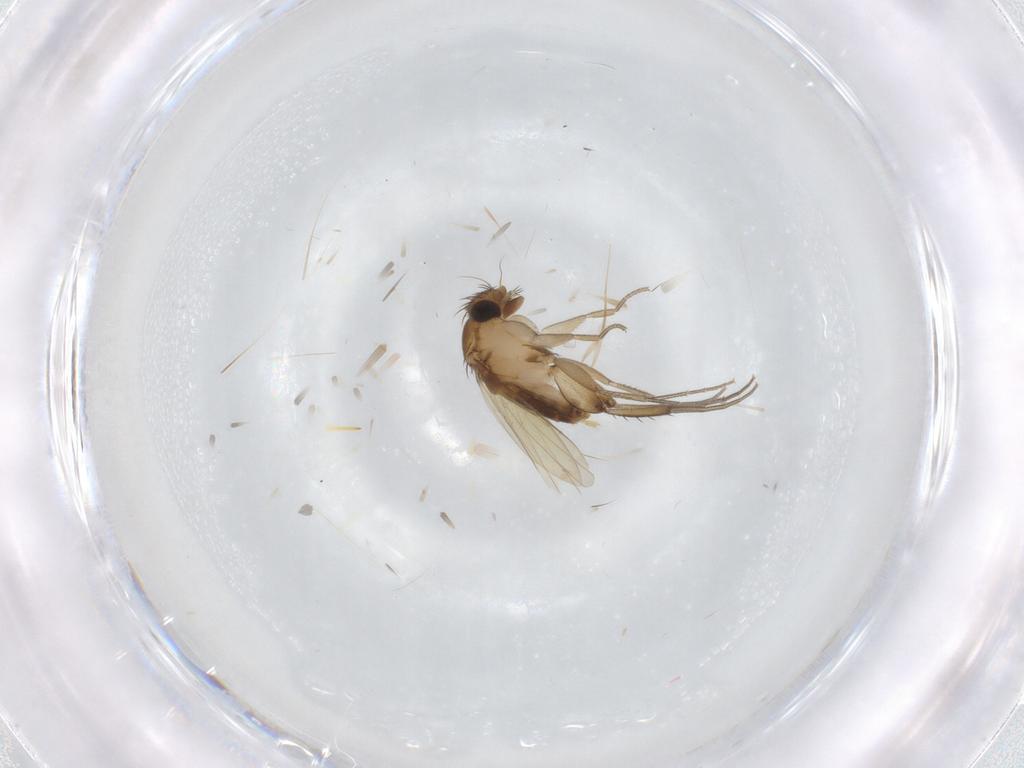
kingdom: Animalia
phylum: Arthropoda
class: Insecta
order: Diptera
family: Phoridae
